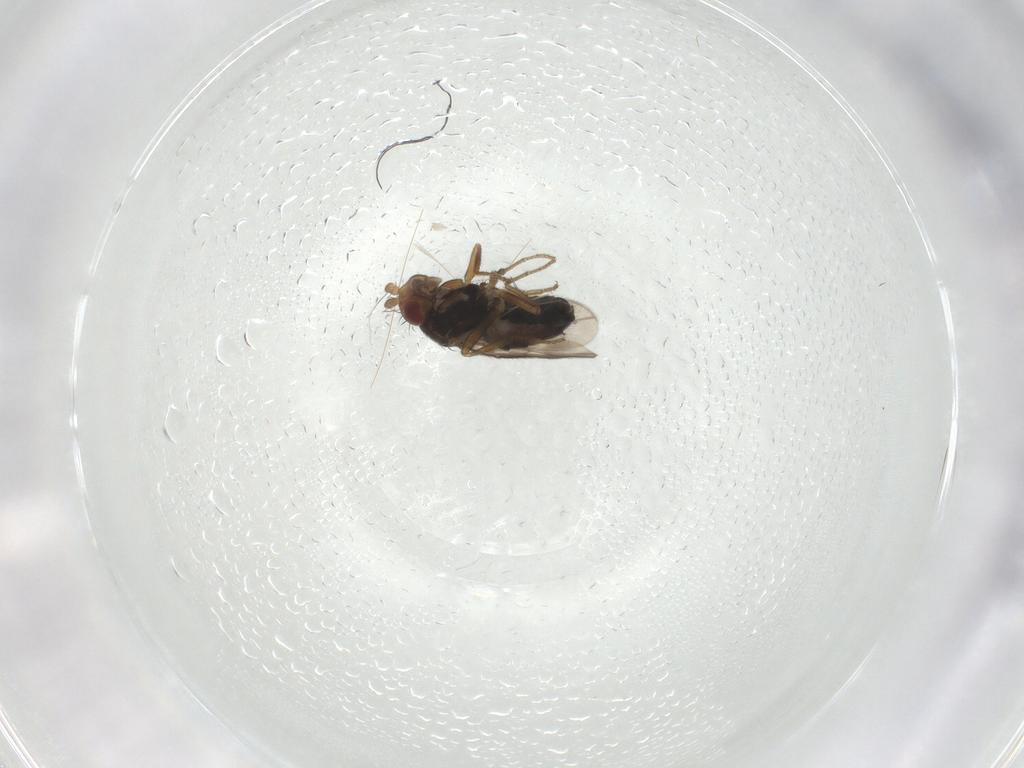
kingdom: Animalia
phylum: Arthropoda
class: Insecta
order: Diptera
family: Sphaeroceridae
